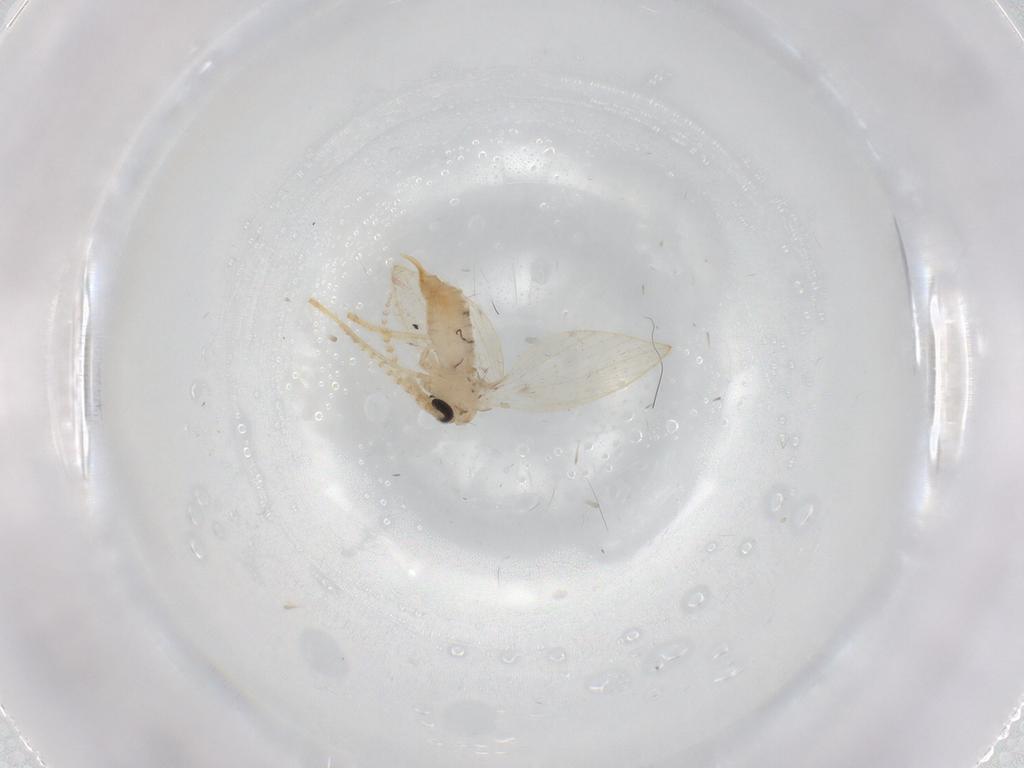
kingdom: Animalia
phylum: Arthropoda
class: Insecta
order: Diptera
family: Psychodidae
